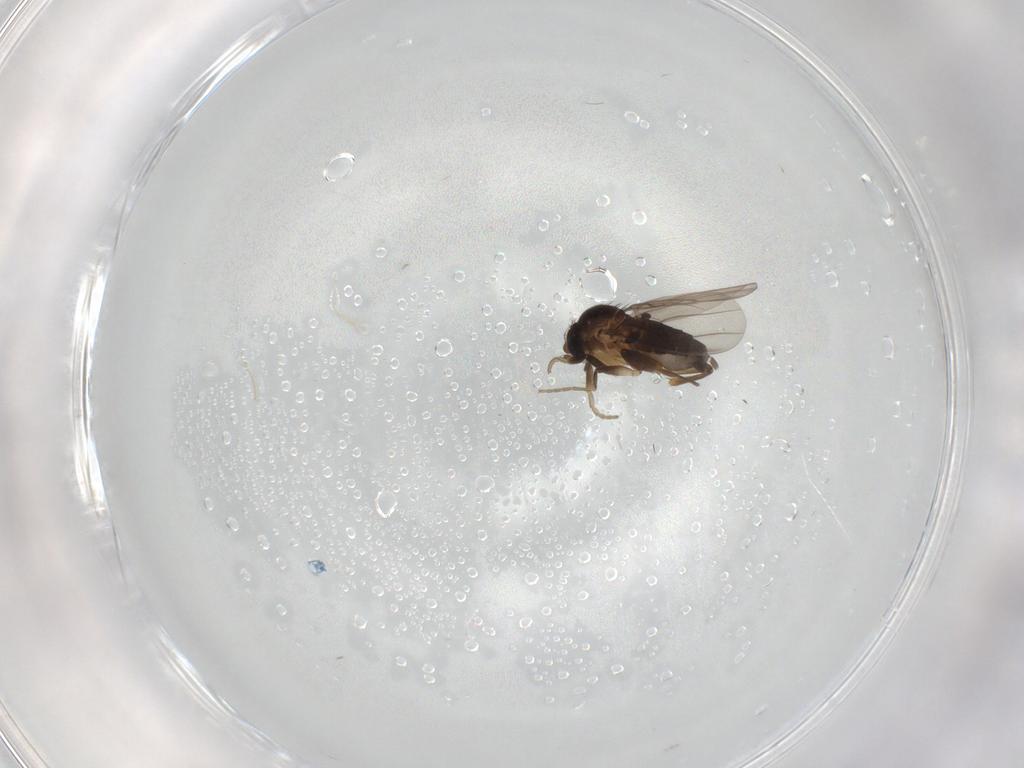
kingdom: Animalia
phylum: Arthropoda
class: Insecta
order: Diptera
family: Phoridae
